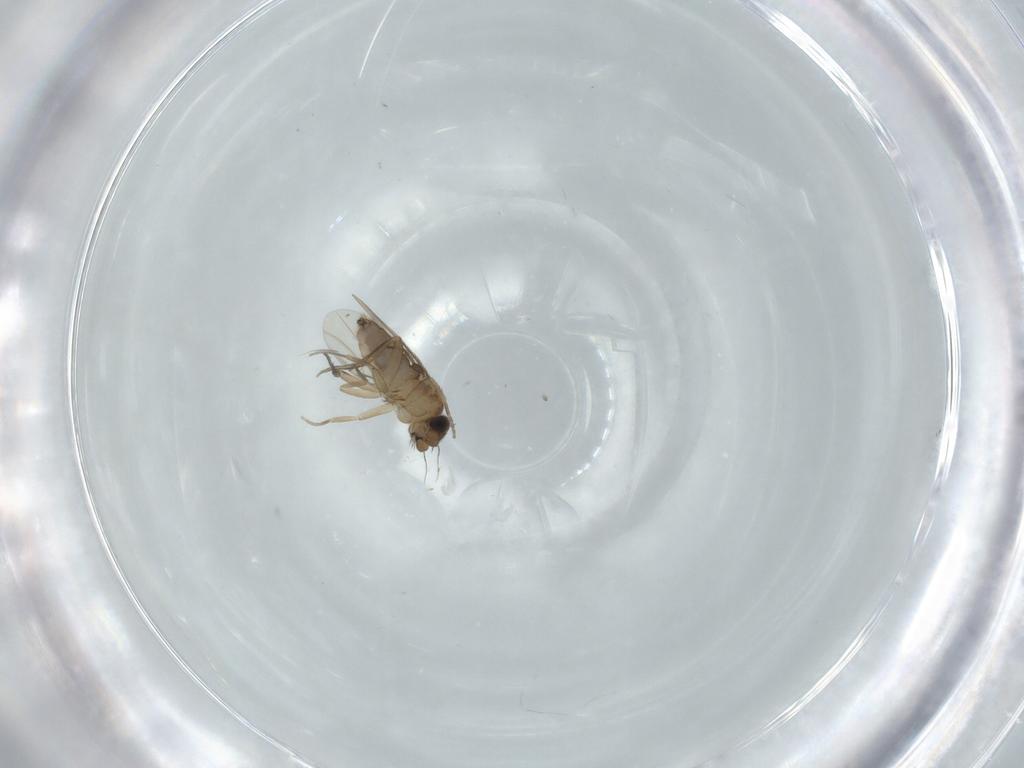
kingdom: Animalia
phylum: Arthropoda
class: Insecta
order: Diptera
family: Phoridae
